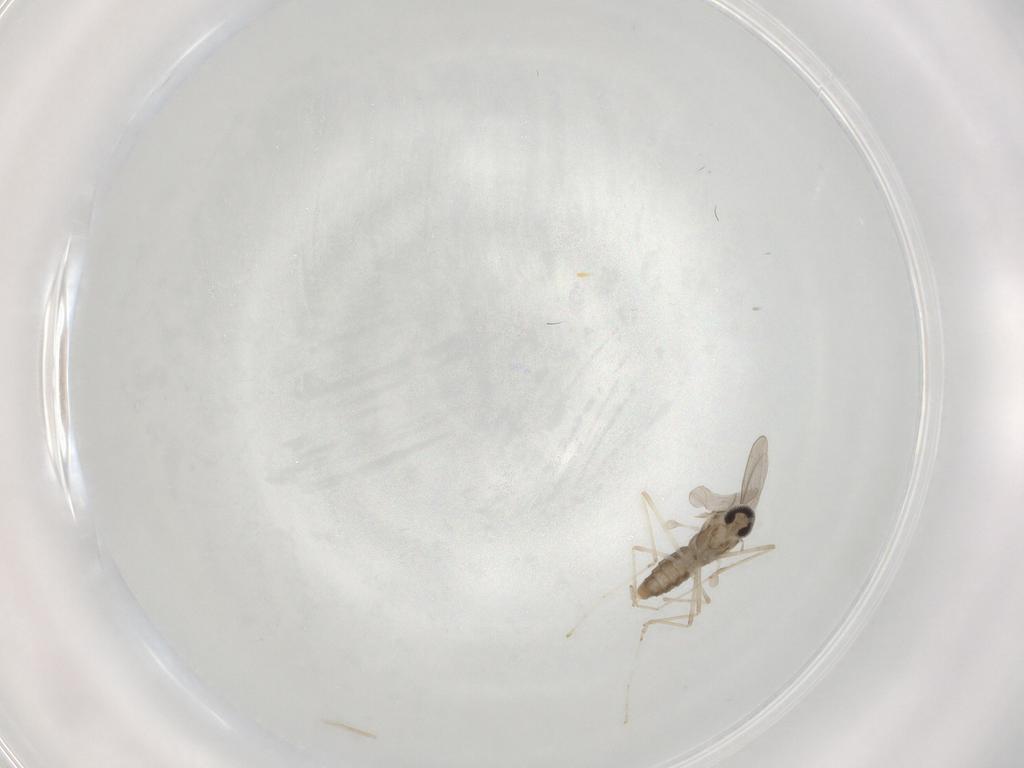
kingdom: Animalia
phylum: Arthropoda
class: Insecta
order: Diptera
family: Cecidomyiidae
